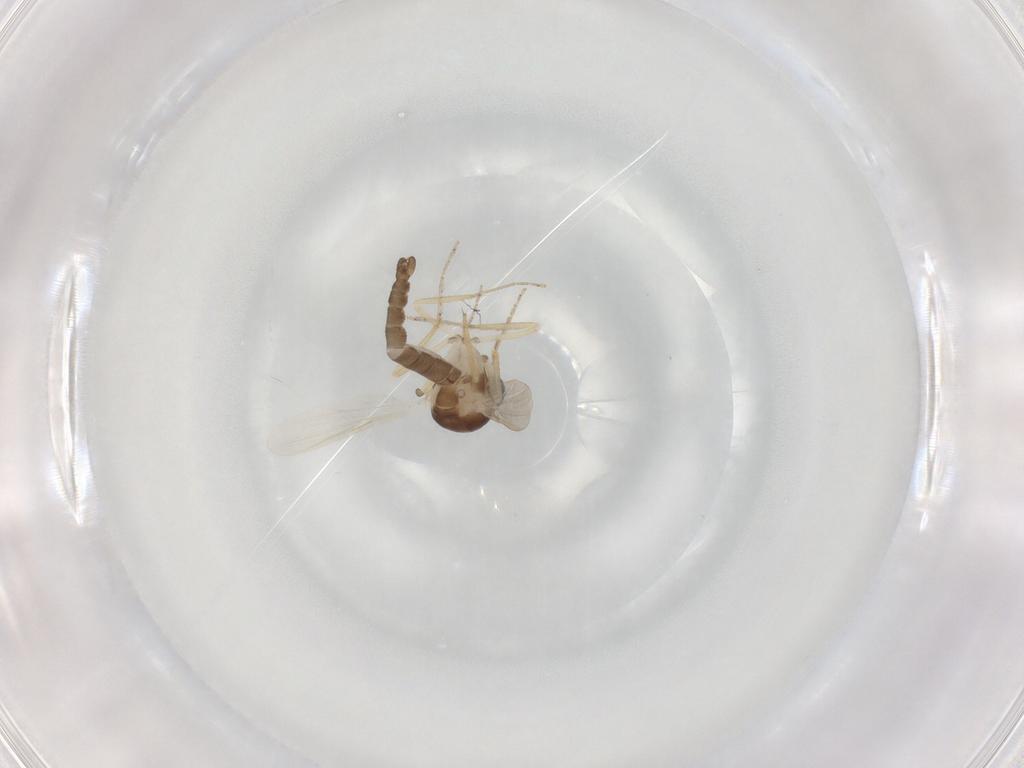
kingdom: Animalia
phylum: Arthropoda
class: Insecta
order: Diptera
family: Ceratopogonidae
